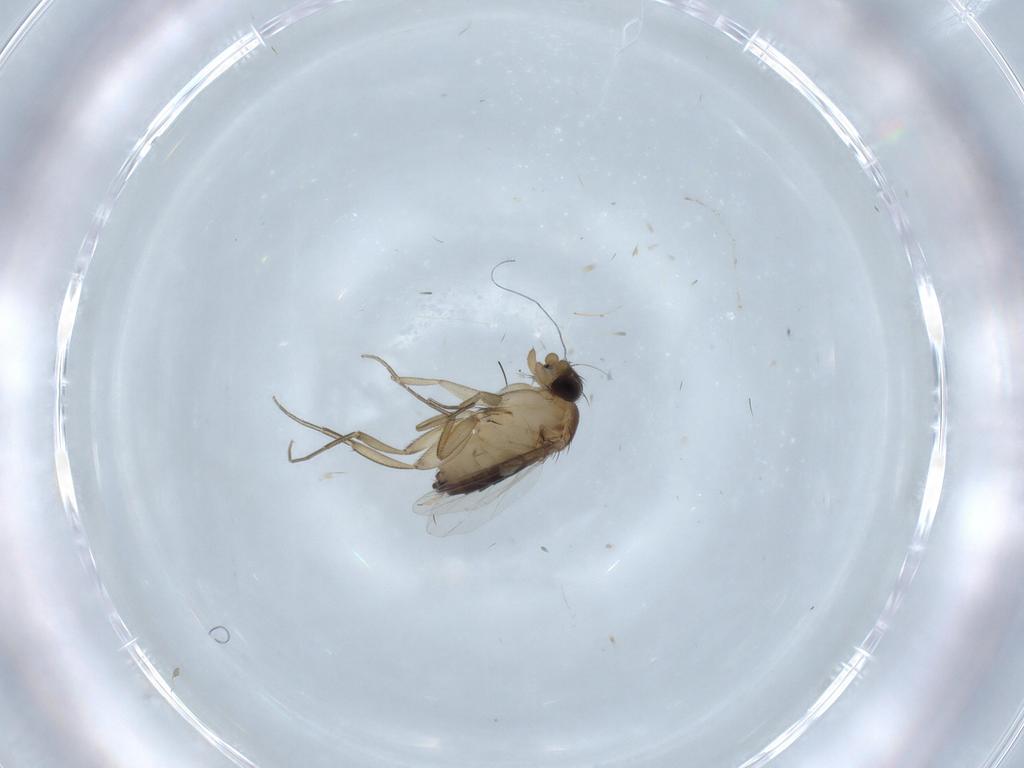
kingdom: Animalia
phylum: Arthropoda
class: Insecta
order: Diptera
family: Cecidomyiidae
